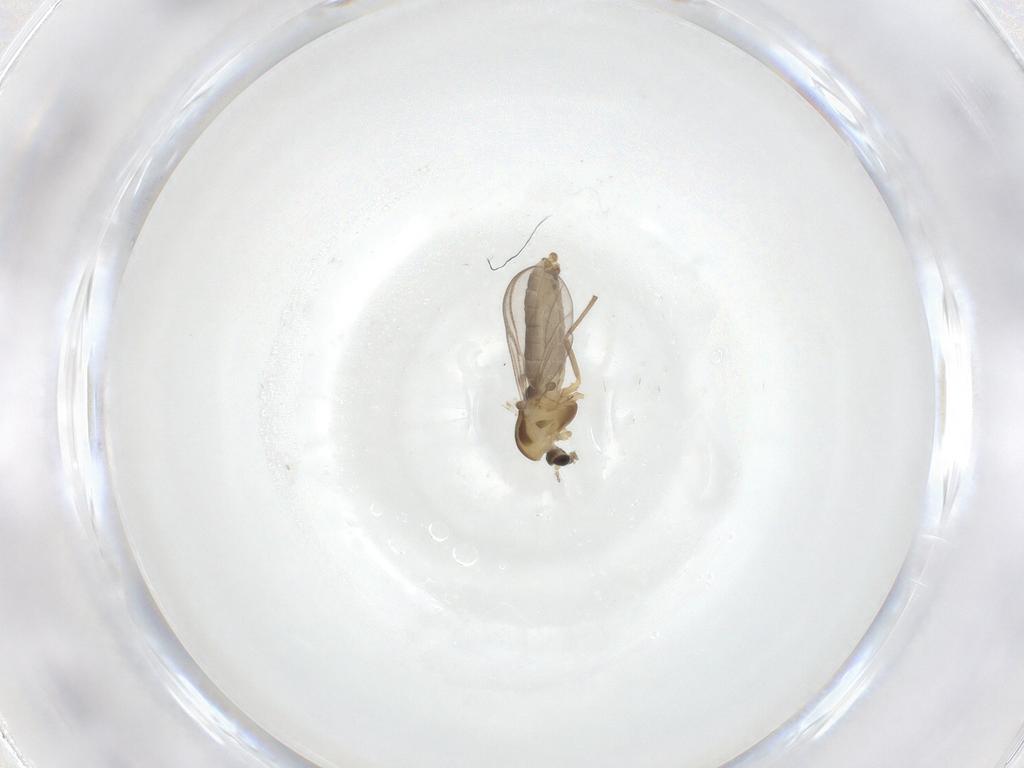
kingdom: Animalia
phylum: Arthropoda
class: Insecta
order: Diptera
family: Chironomidae
